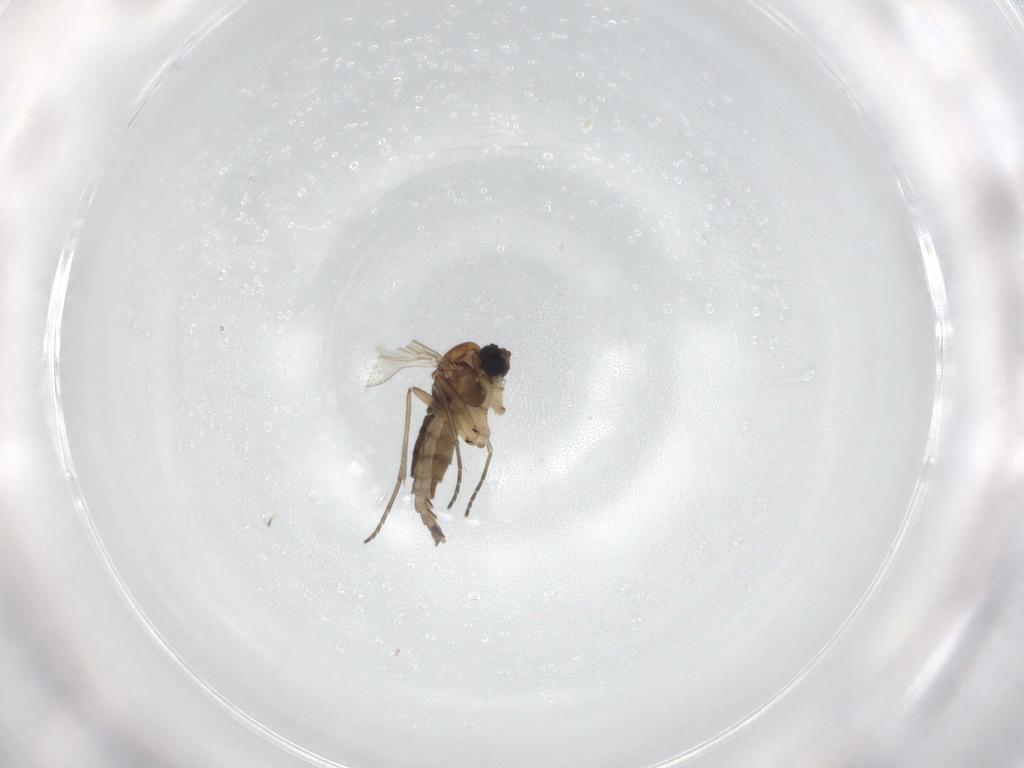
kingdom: Animalia
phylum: Arthropoda
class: Insecta
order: Diptera
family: Sciaridae
